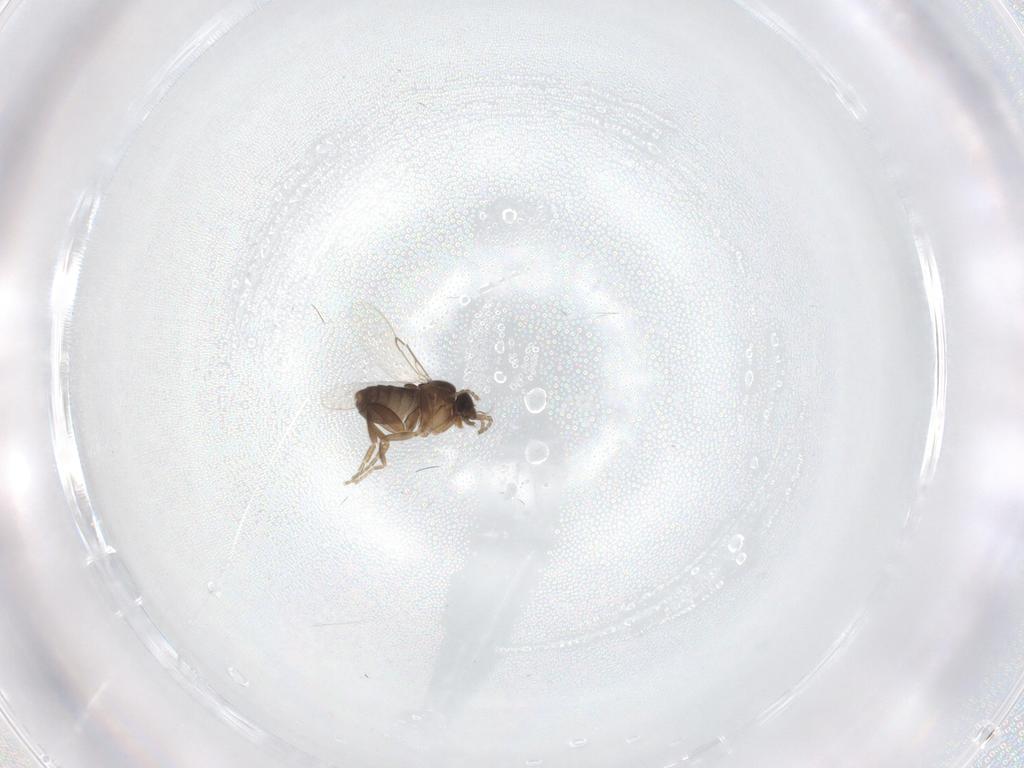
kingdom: Animalia
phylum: Arthropoda
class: Insecta
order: Diptera
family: Phoridae
